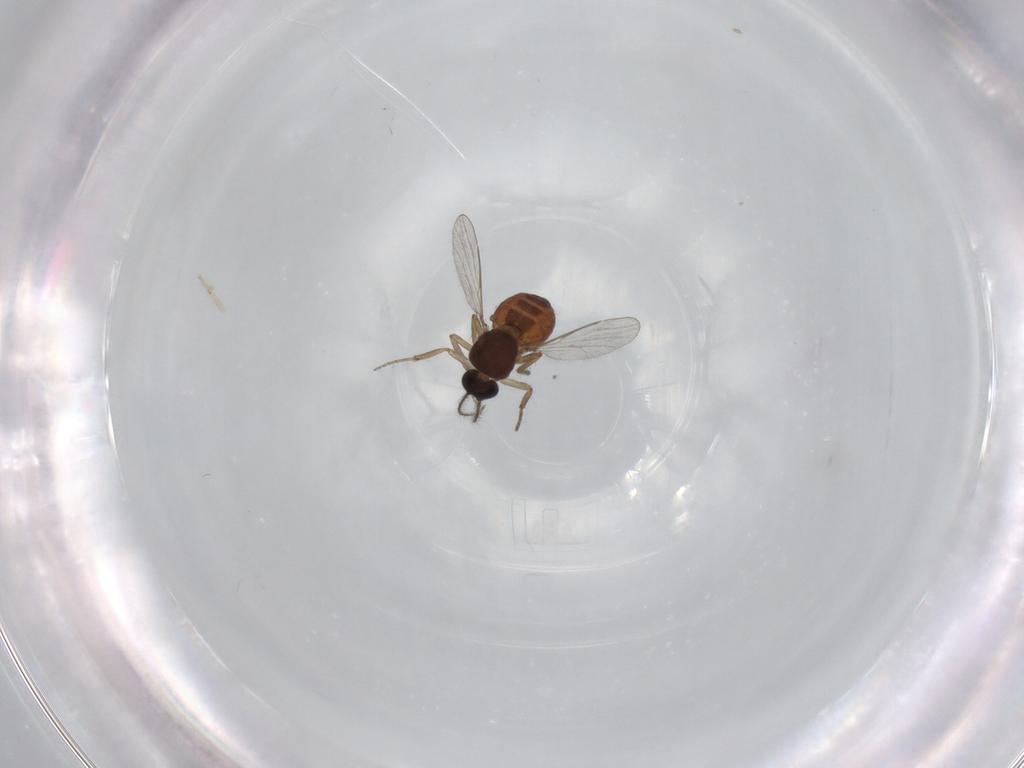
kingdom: Animalia
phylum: Arthropoda
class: Insecta
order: Diptera
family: Ceratopogonidae
